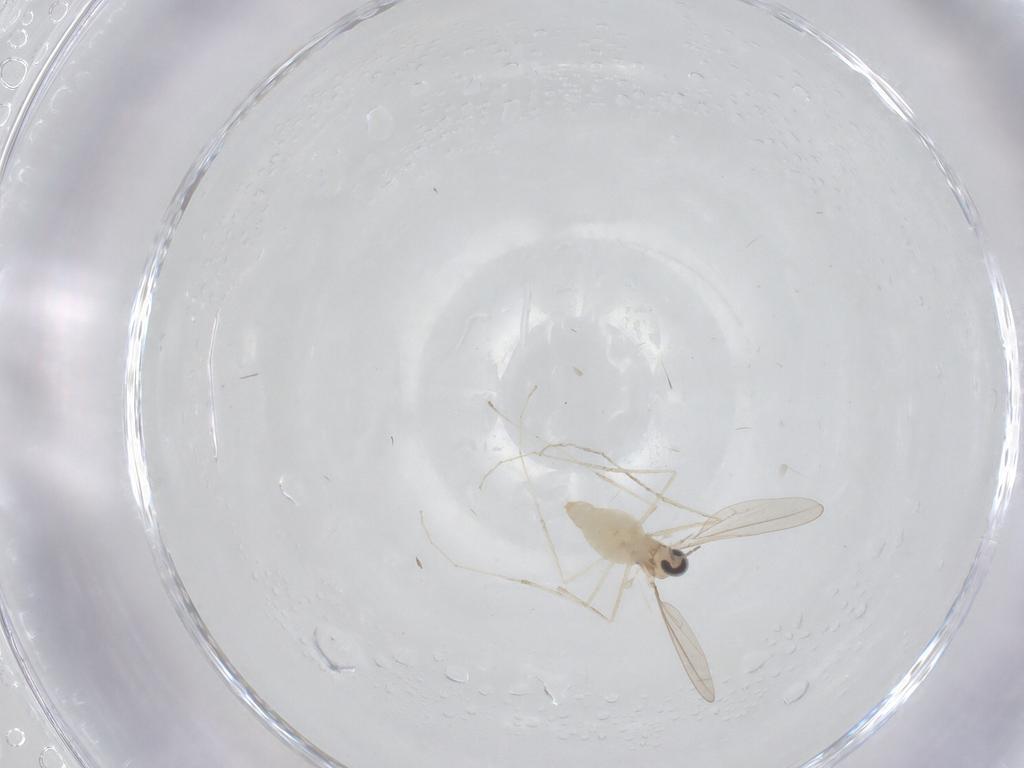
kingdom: Animalia
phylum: Arthropoda
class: Insecta
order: Diptera
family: Cecidomyiidae
